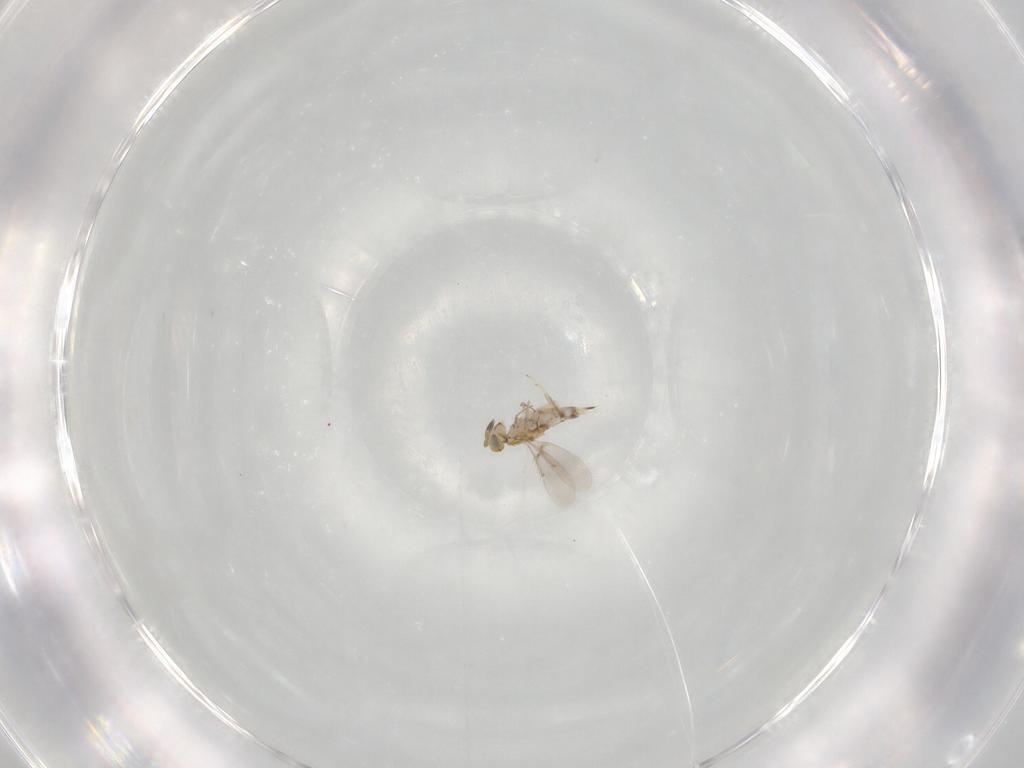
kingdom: Animalia
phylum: Arthropoda
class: Insecta
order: Hymenoptera
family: Aphelinidae
